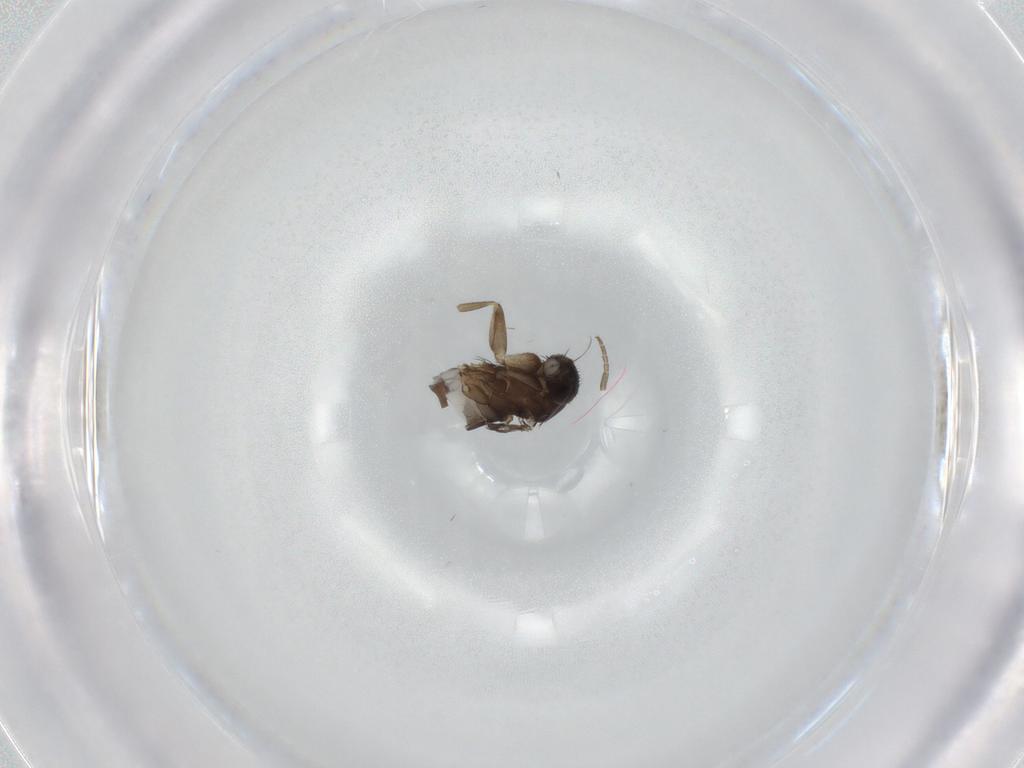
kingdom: Animalia
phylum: Arthropoda
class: Insecta
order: Diptera
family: Phoridae
